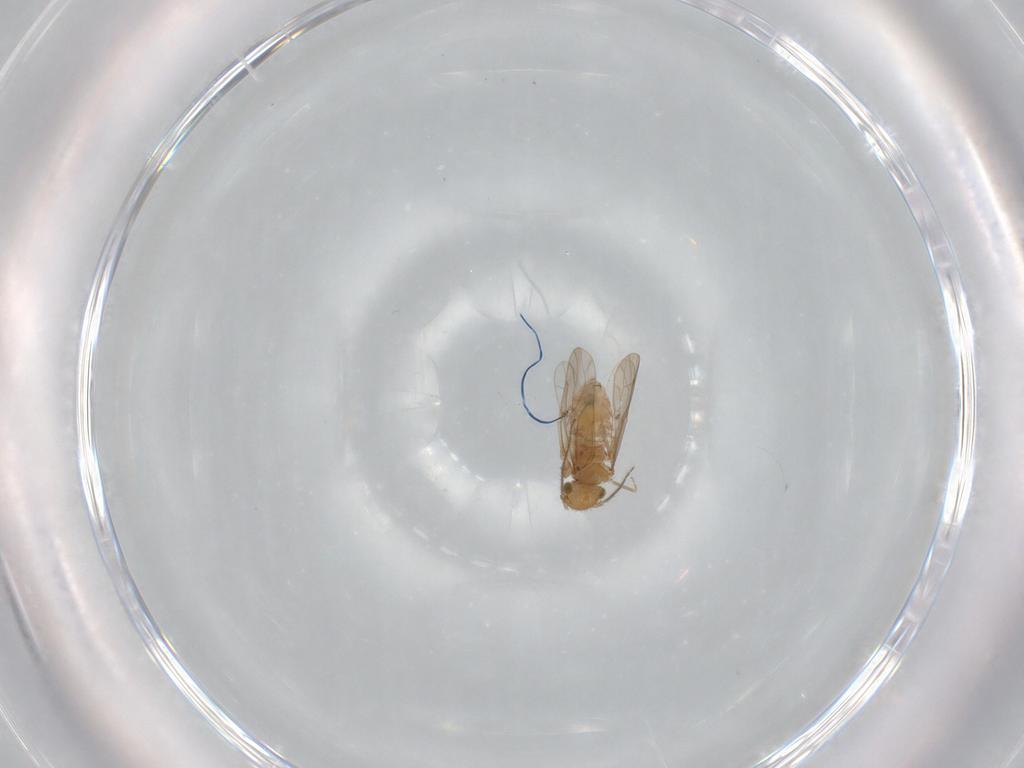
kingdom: Animalia
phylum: Arthropoda
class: Insecta
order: Psocodea
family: Ectopsocidae
